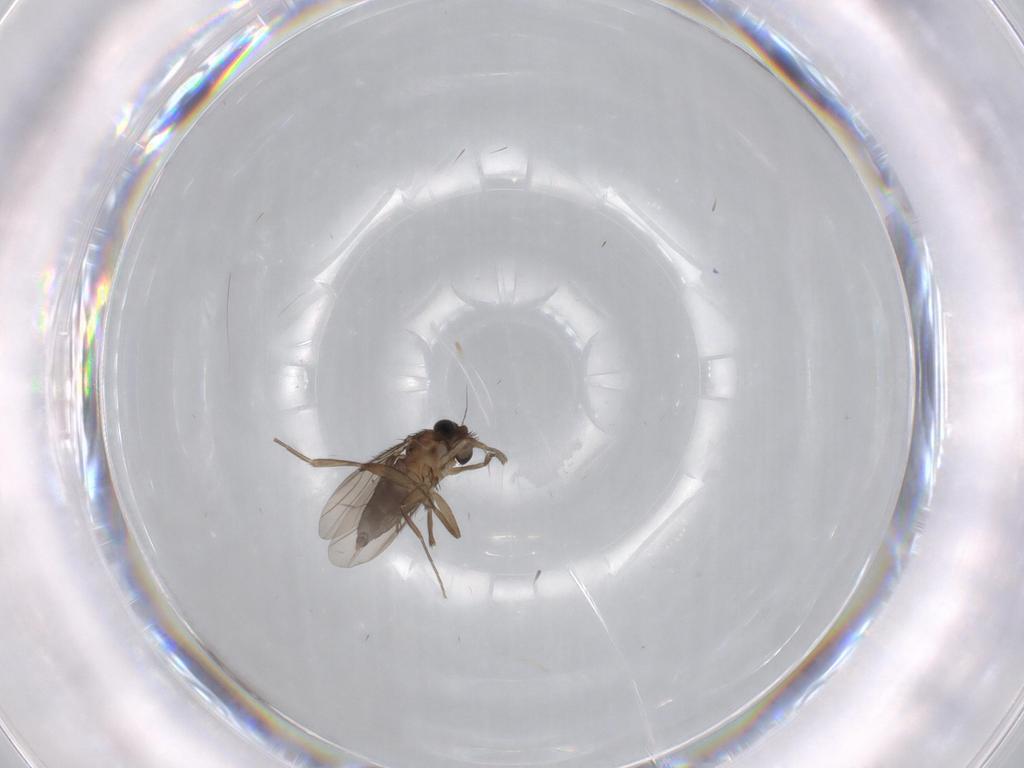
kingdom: Animalia
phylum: Arthropoda
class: Insecta
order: Diptera
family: Phoridae
